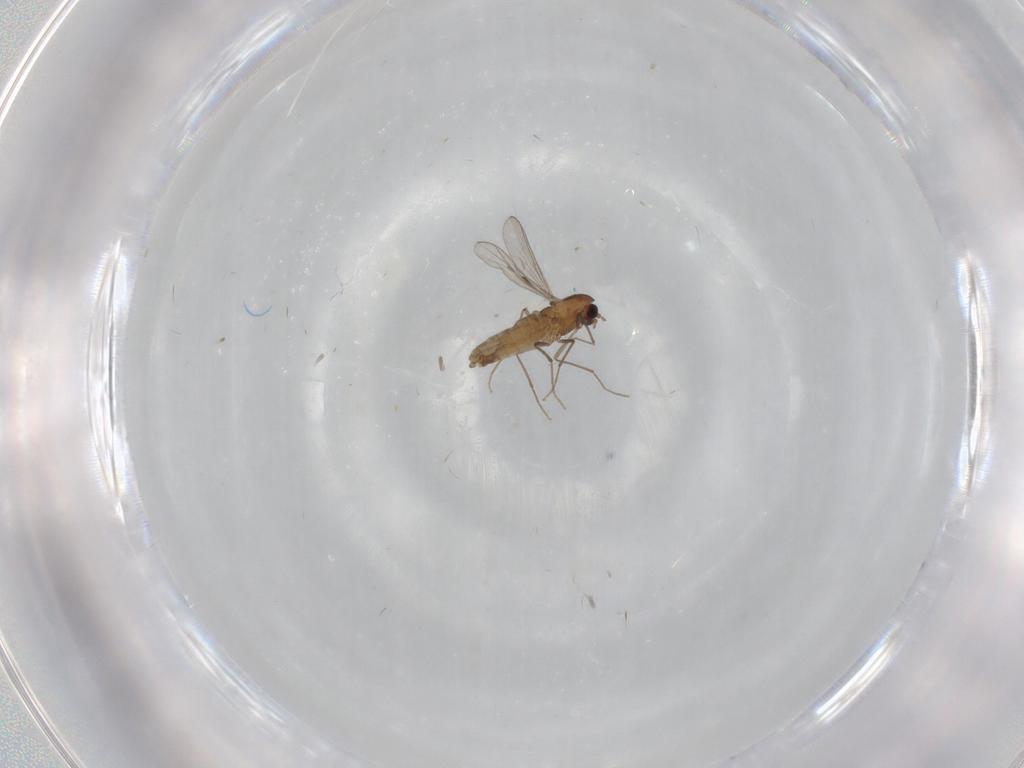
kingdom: Animalia
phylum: Arthropoda
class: Insecta
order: Diptera
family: Chironomidae
